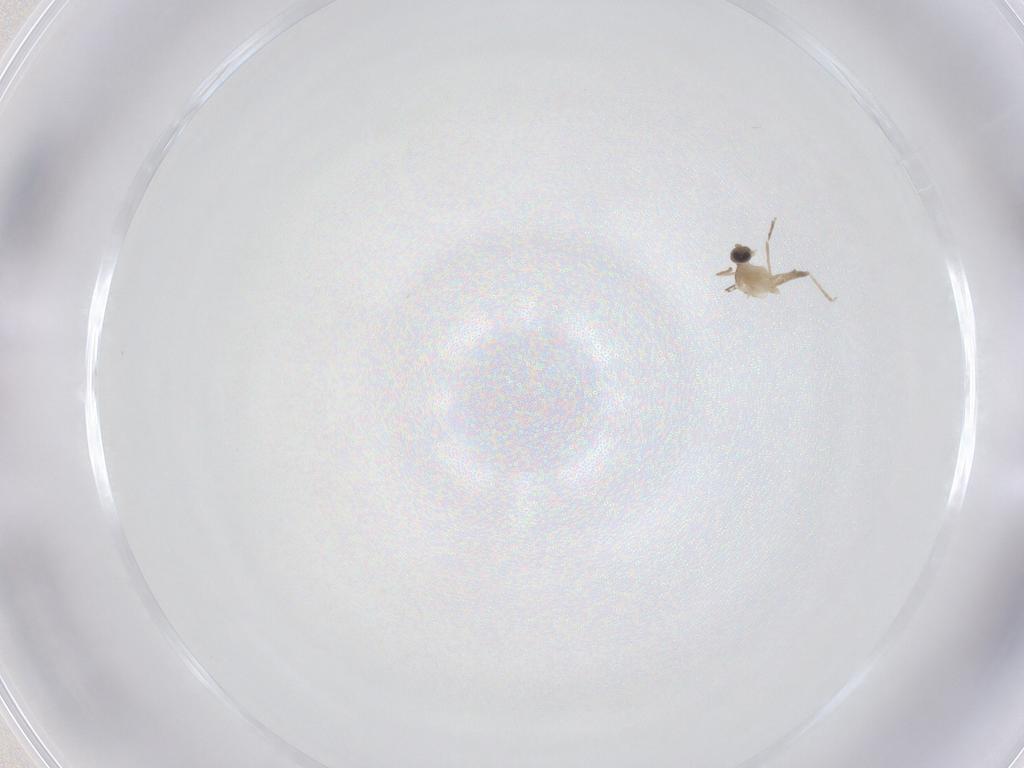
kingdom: Animalia
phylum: Arthropoda
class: Insecta
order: Diptera
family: Cecidomyiidae
